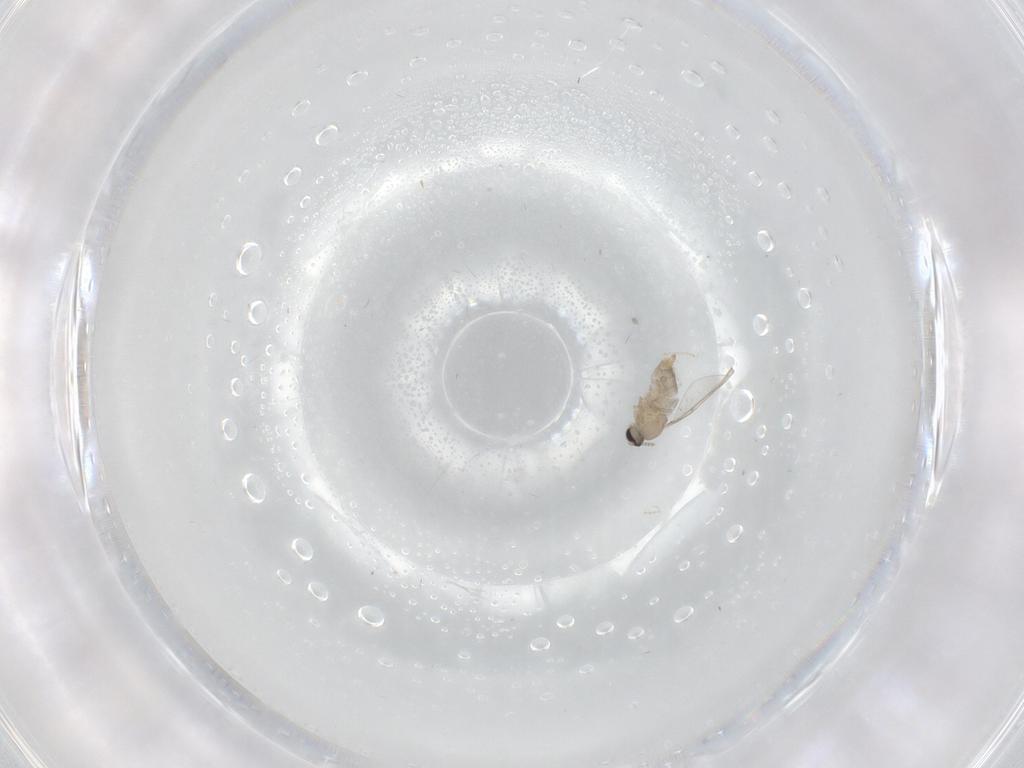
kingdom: Animalia
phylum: Arthropoda
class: Insecta
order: Diptera
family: Cecidomyiidae
